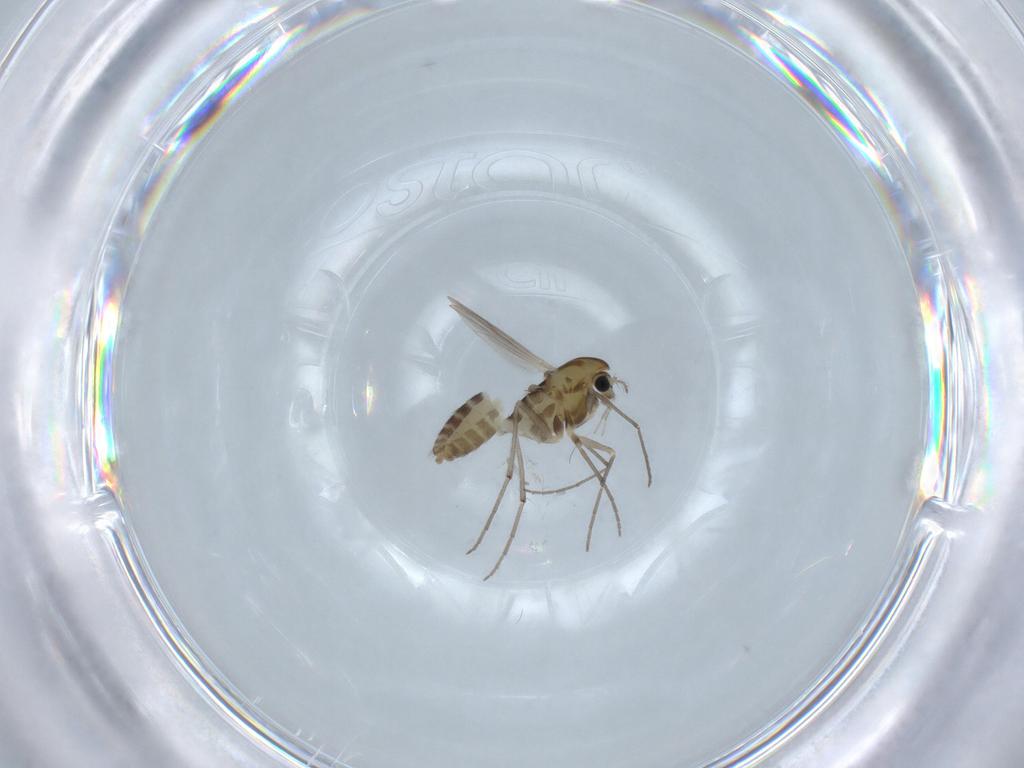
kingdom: Animalia
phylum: Arthropoda
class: Insecta
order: Diptera
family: Chironomidae
